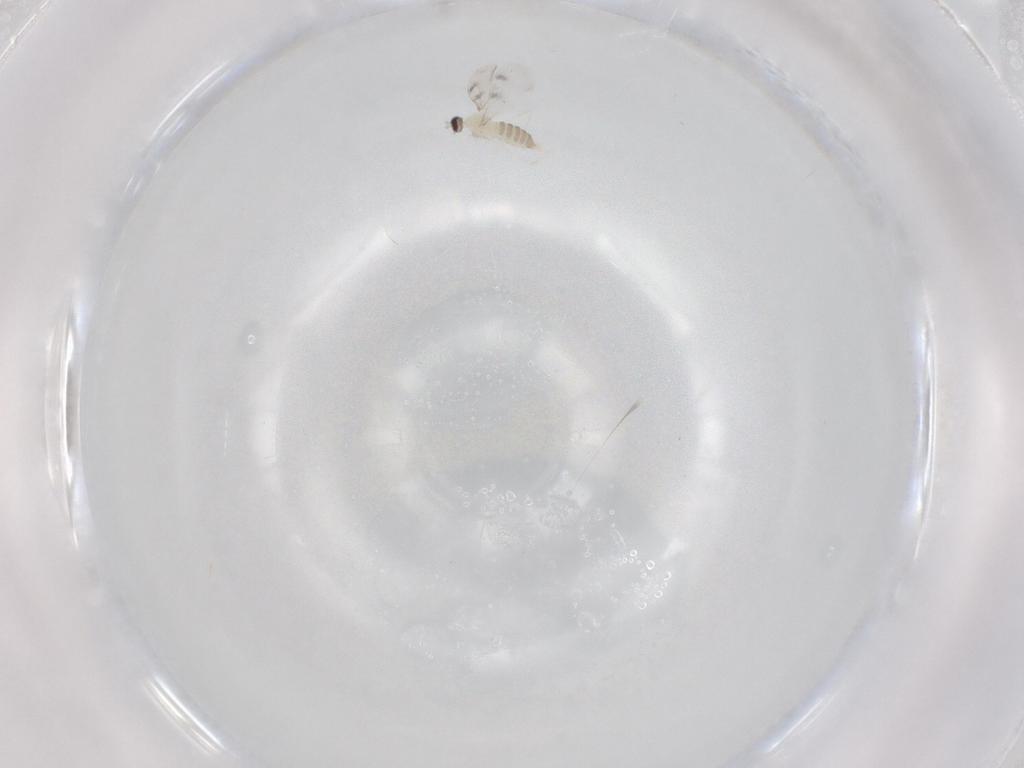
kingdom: Animalia
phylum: Arthropoda
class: Insecta
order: Diptera
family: Cecidomyiidae
